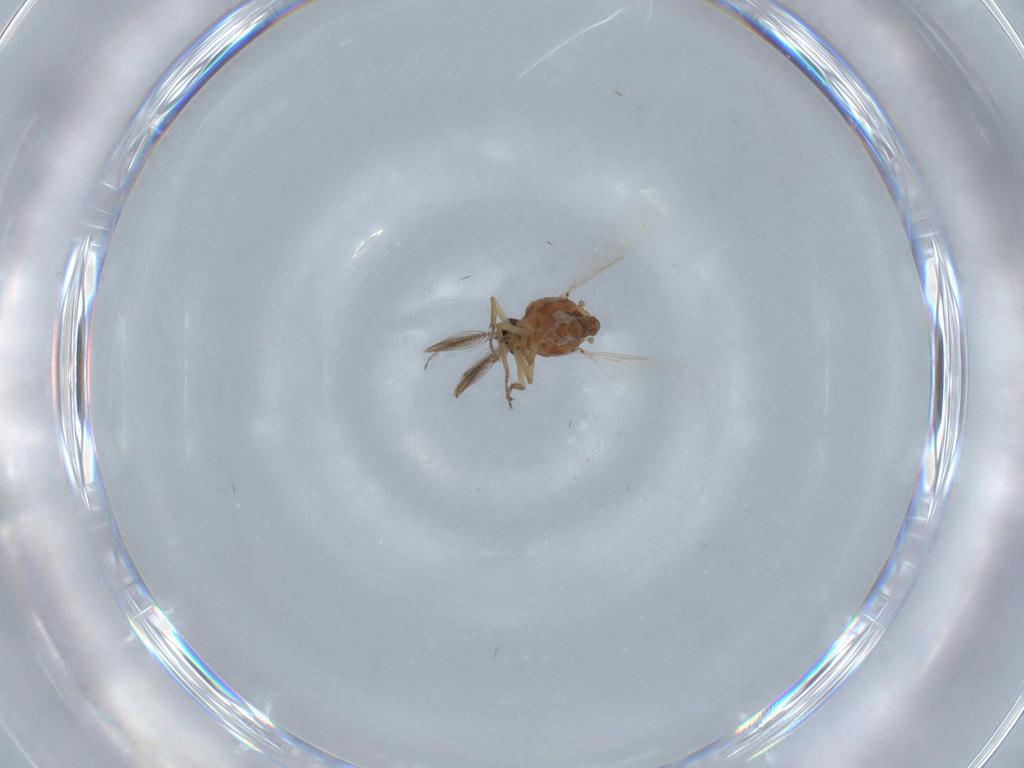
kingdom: Animalia
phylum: Arthropoda
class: Insecta
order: Diptera
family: Ceratopogonidae
